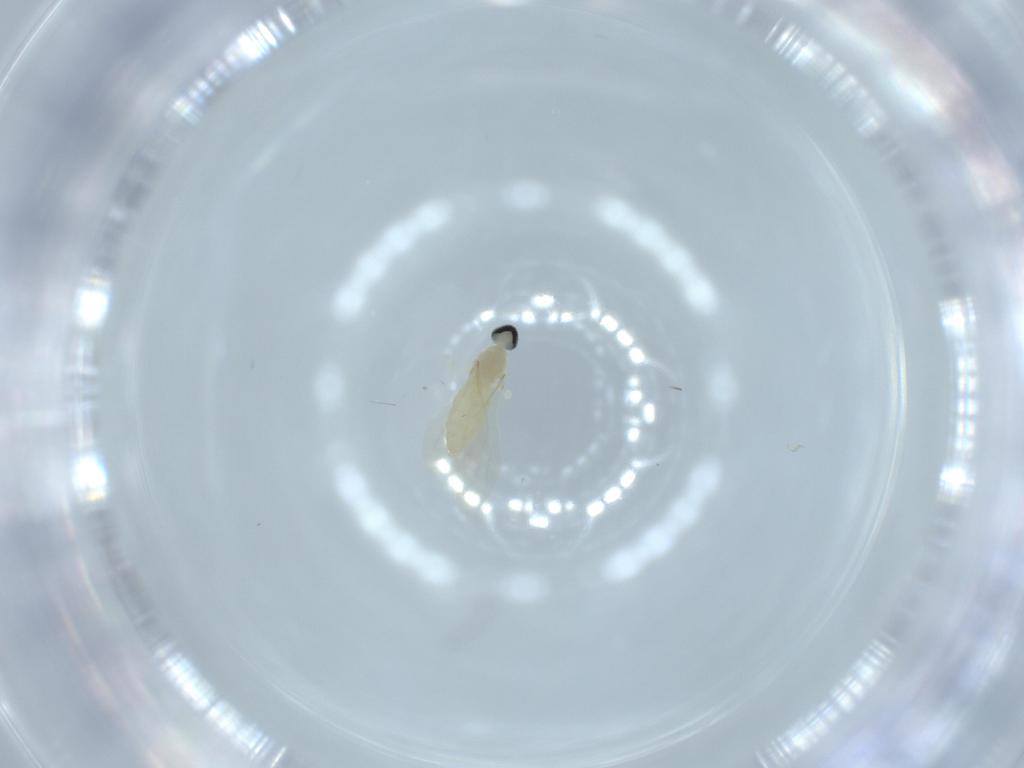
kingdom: Animalia
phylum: Arthropoda
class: Insecta
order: Diptera
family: Cecidomyiidae
